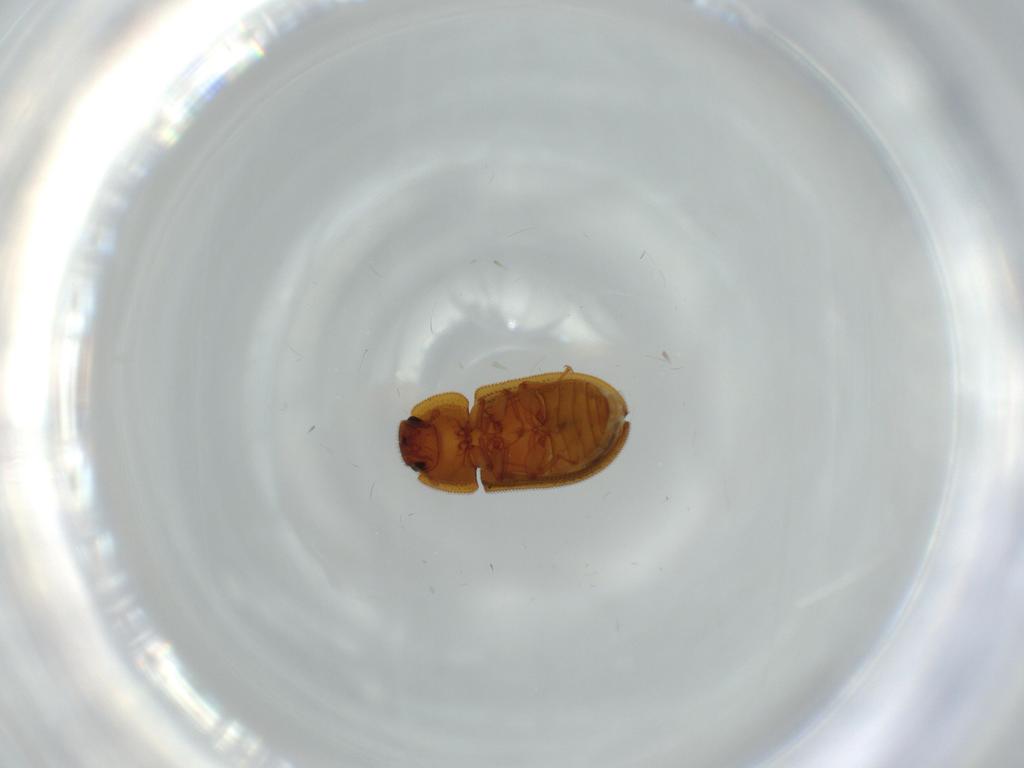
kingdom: Animalia
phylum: Arthropoda
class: Insecta
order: Coleoptera
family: Zopheridae
